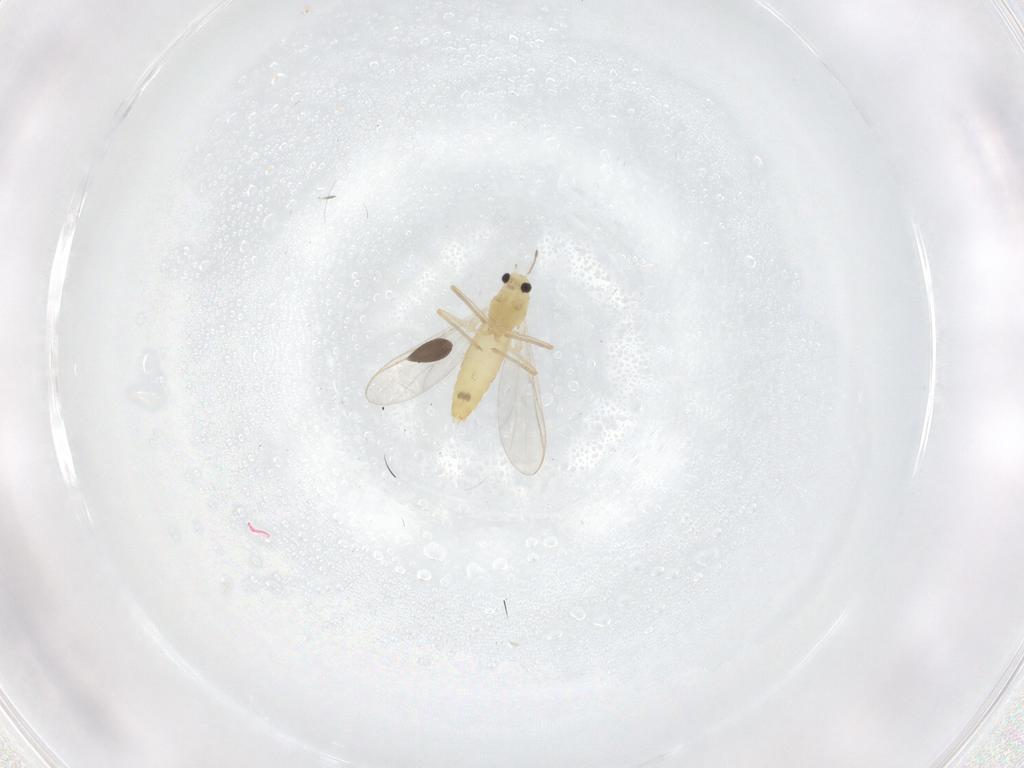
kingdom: Animalia
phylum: Arthropoda
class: Insecta
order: Diptera
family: Chironomidae
